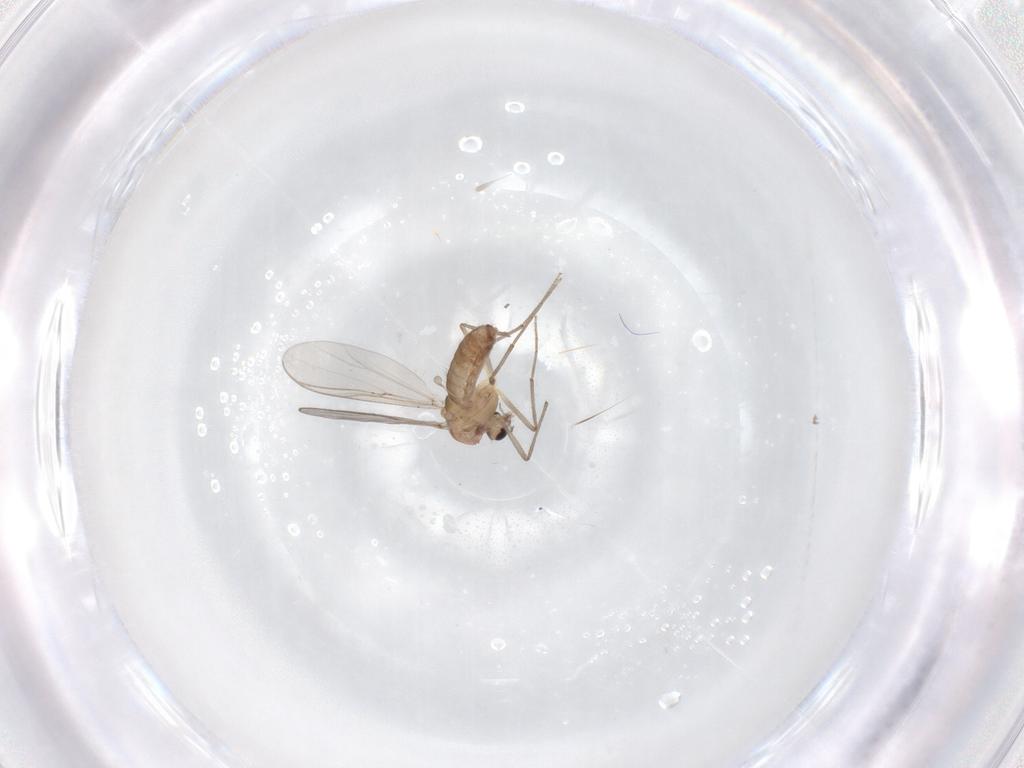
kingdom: Animalia
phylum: Arthropoda
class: Insecta
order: Diptera
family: Chironomidae
